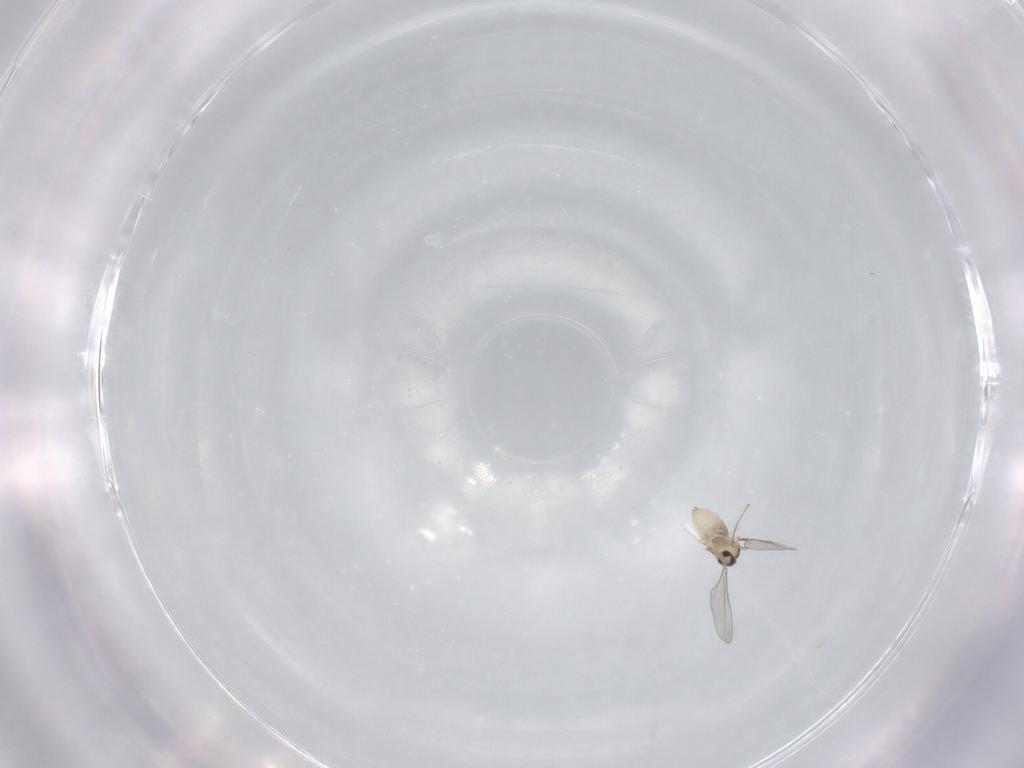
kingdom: Animalia
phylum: Arthropoda
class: Insecta
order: Diptera
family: Cecidomyiidae
